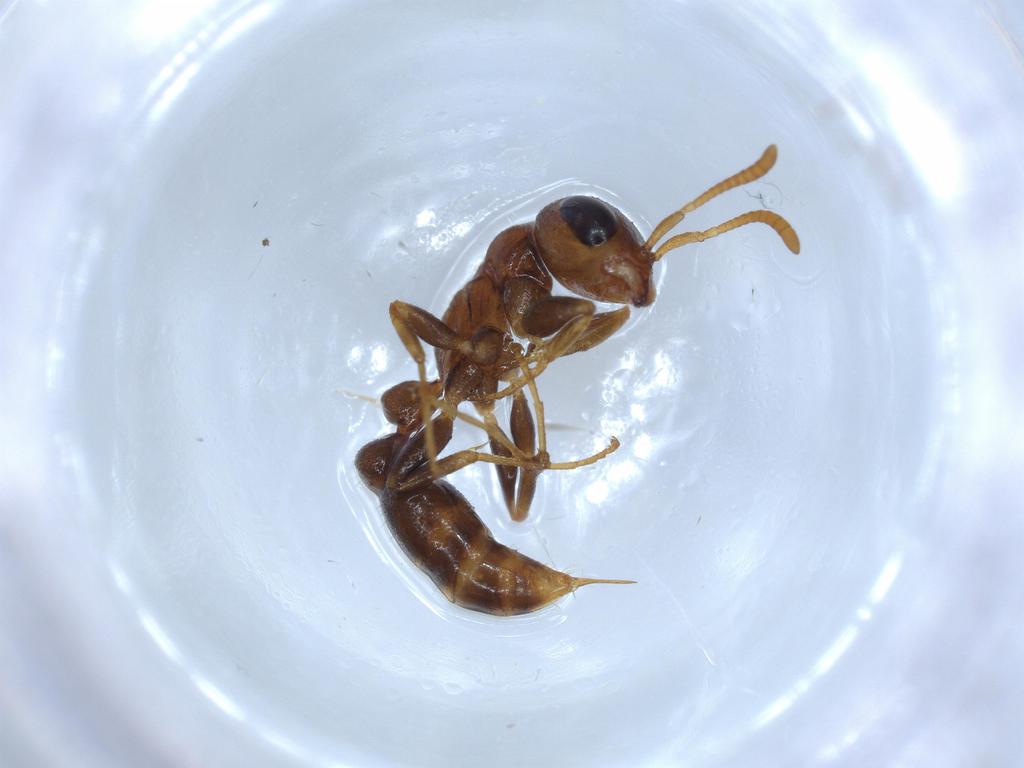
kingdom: Animalia
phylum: Arthropoda
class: Insecta
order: Hymenoptera
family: Formicidae
